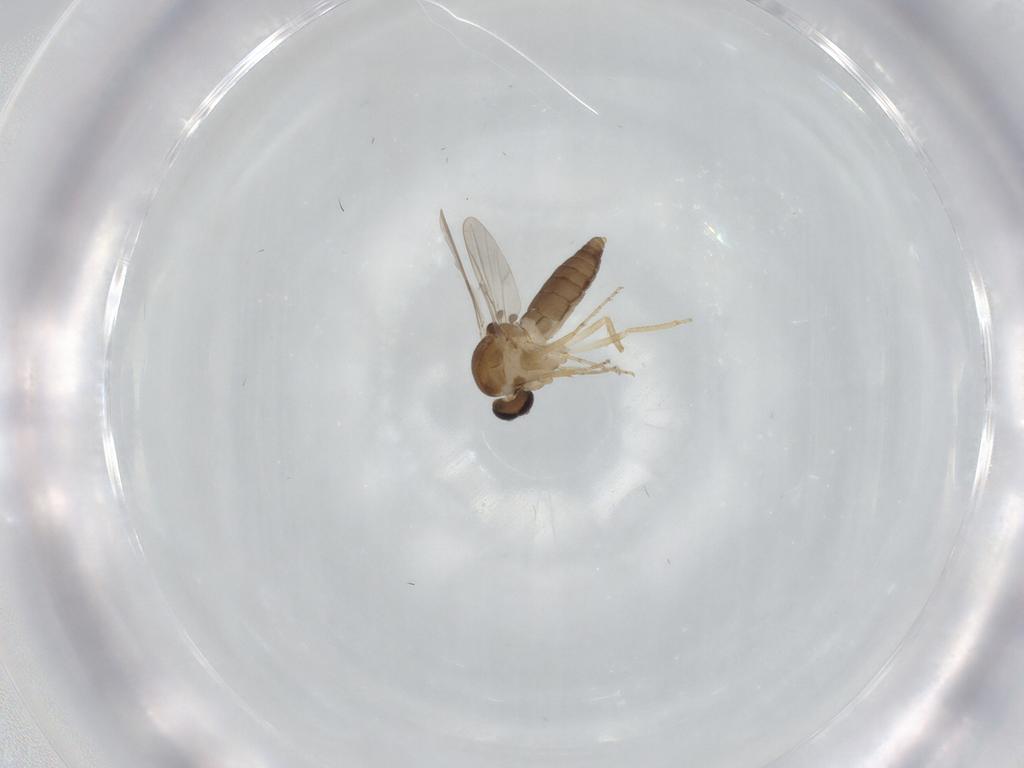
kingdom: Animalia
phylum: Arthropoda
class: Insecta
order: Diptera
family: Ceratopogonidae
